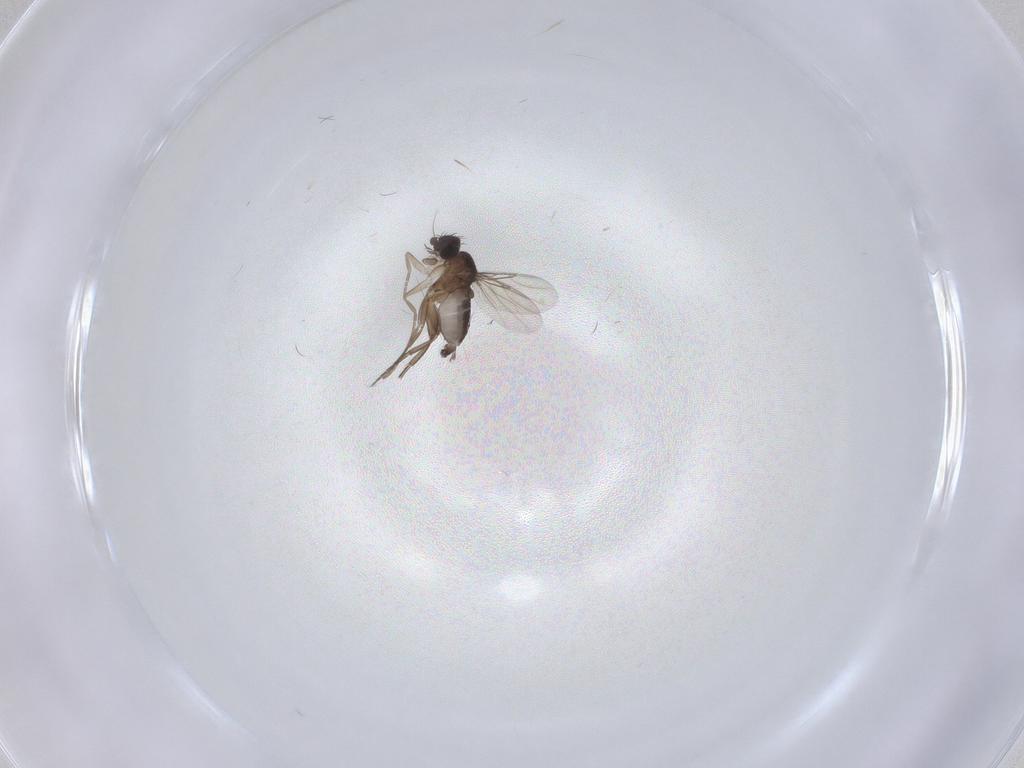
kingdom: Animalia
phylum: Arthropoda
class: Insecta
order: Diptera
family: Phoridae
